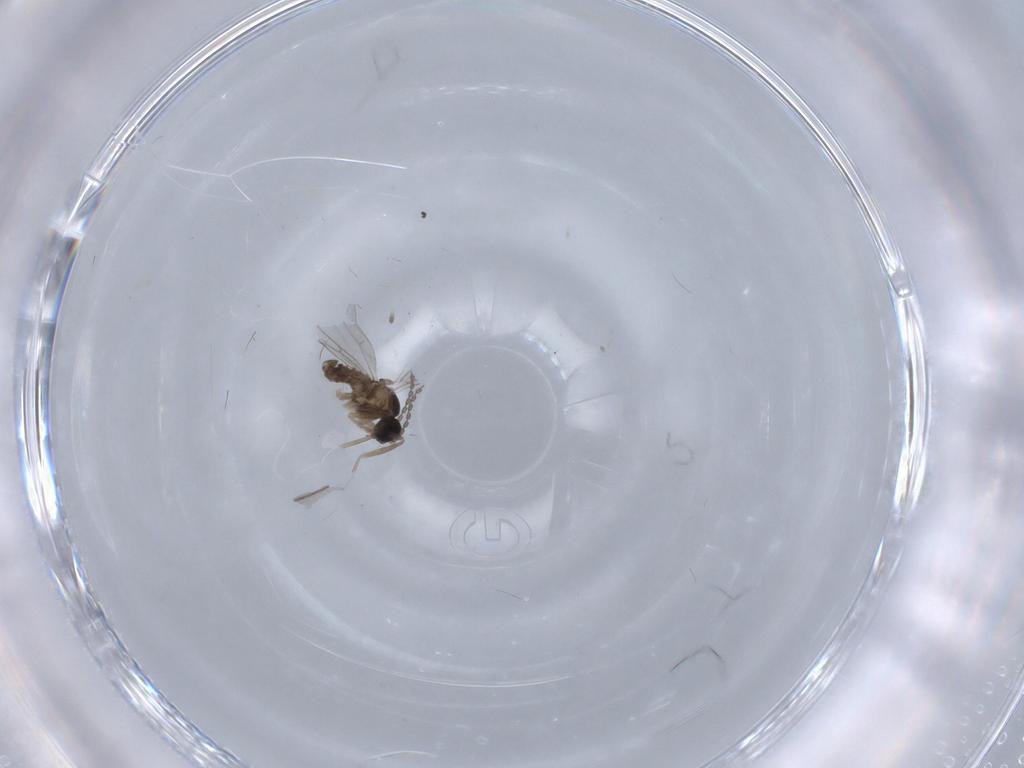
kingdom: Animalia
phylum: Arthropoda
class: Insecta
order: Diptera
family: Cecidomyiidae
